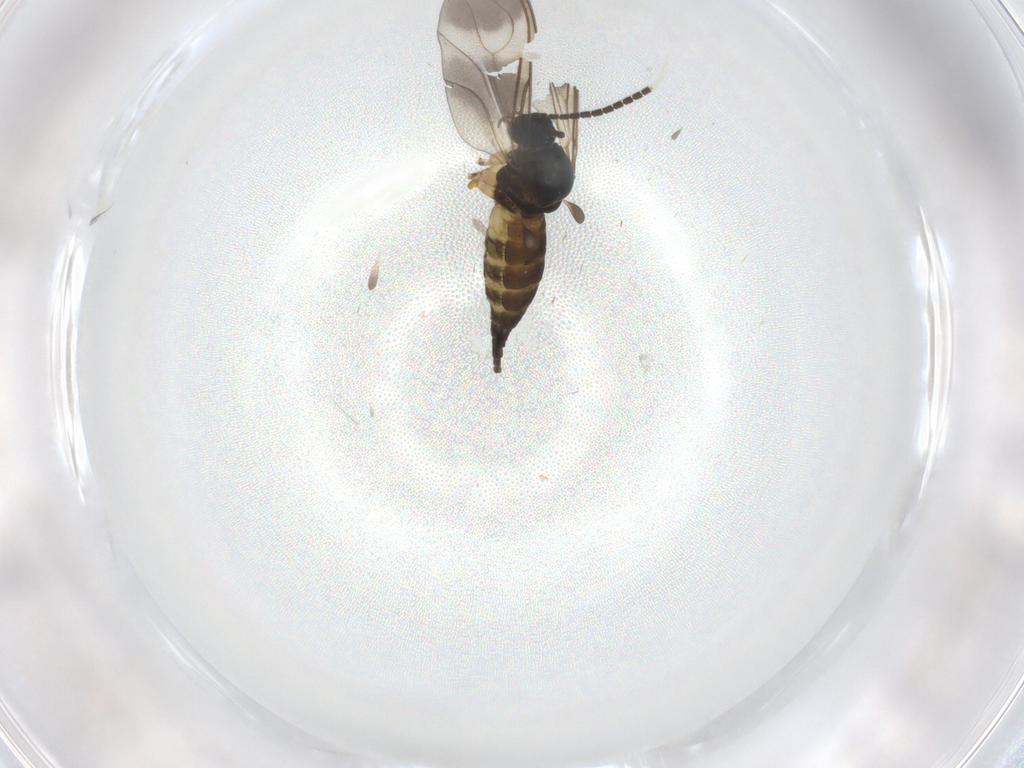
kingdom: Animalia
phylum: Arthropoda
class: Insecta
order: Diptera
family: Sciaridae
